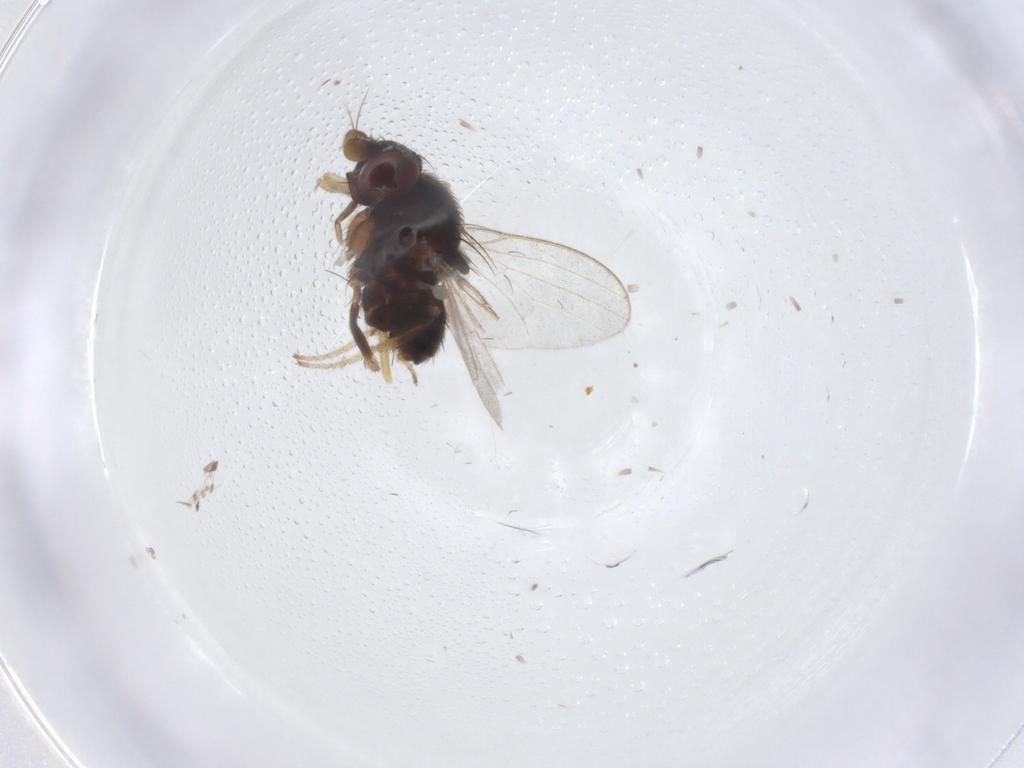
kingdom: Animalia
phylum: Arthropoda
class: Insecta
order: Diptera
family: Milichiidae
